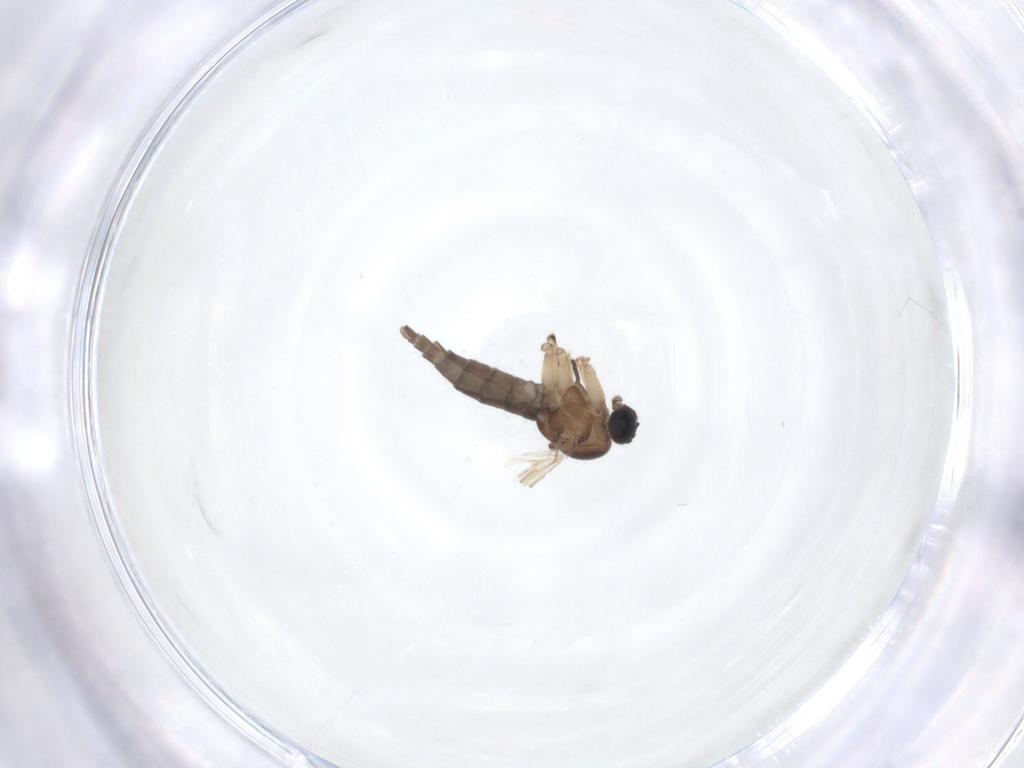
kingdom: Animalia
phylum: Arthropoda
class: Insecta
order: Diptera
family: Sciaridae
